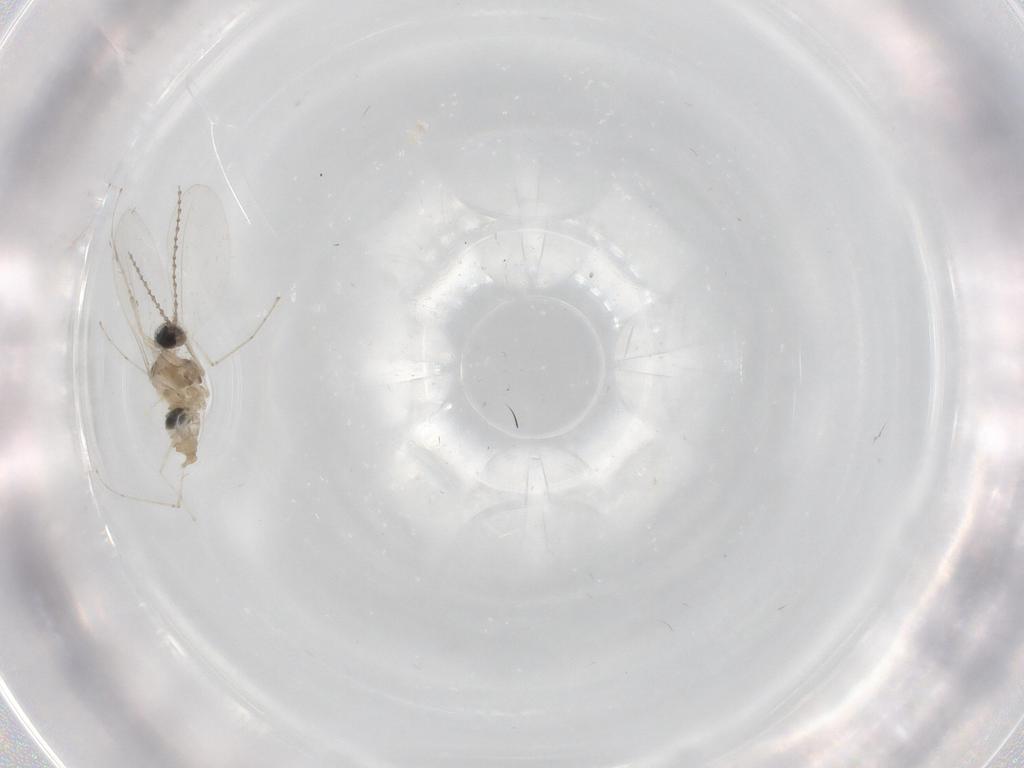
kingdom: Animalia
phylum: Arthropoda
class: Insecta
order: Diptera
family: Cecidomyiidae
